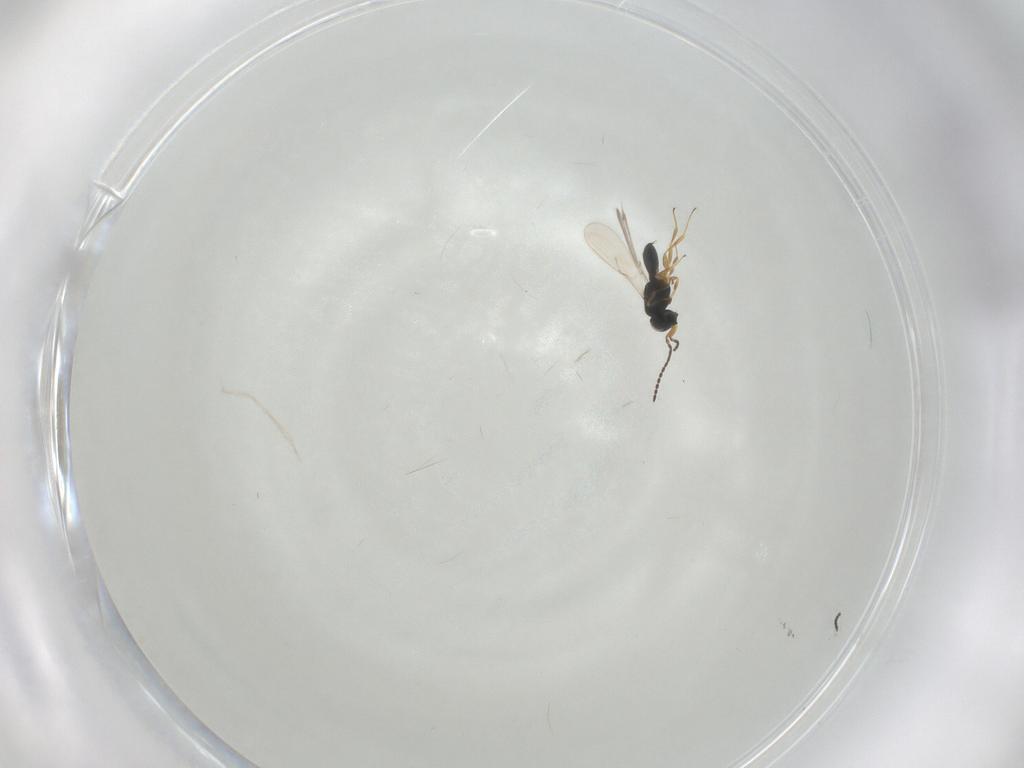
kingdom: Animalia
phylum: Arthropoda
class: Insecta
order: Hymenoptera
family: Scelionidae
